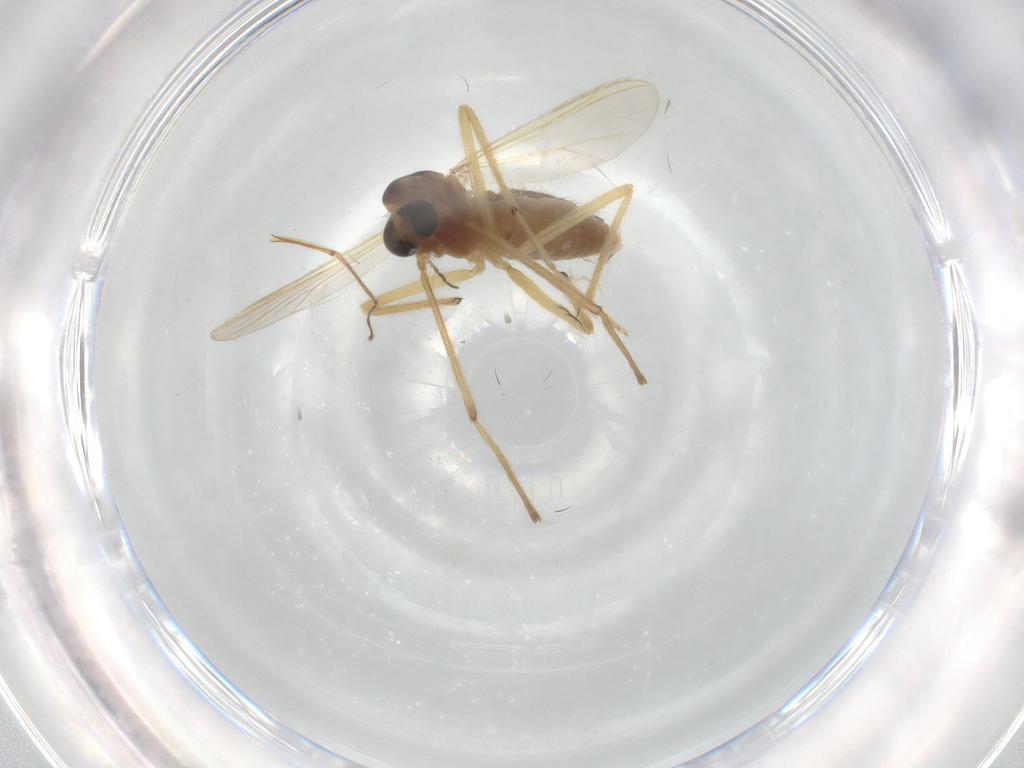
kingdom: Animalia
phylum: Arthropoda
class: Insecta
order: Diptera
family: Chironomidae
